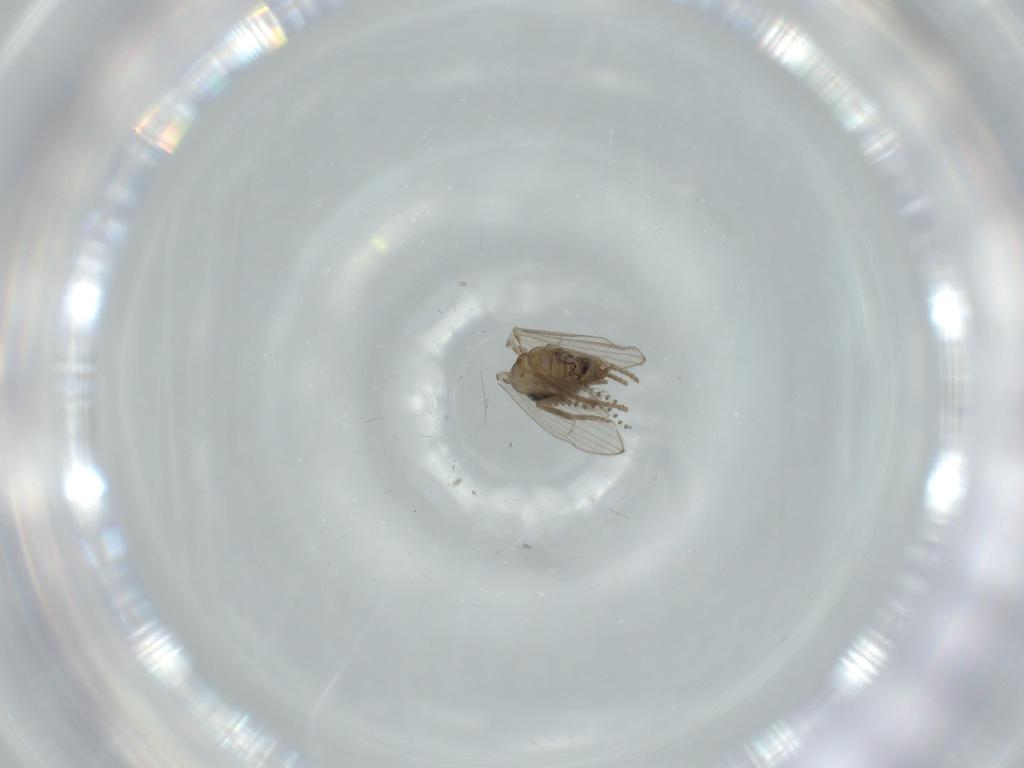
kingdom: Animalia
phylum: Arthropoda
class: Insecta
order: Diptera
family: Psychodidae
